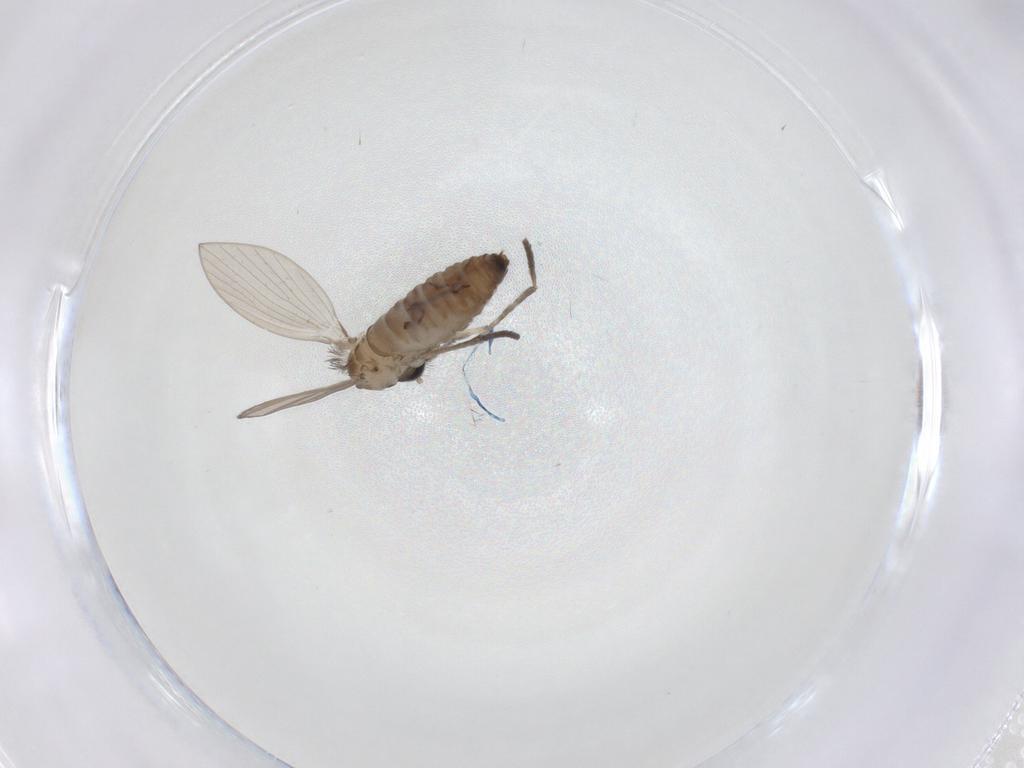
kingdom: Animalia
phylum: Arthropoda
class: Insecta
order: Diptera
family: Psychodidae
